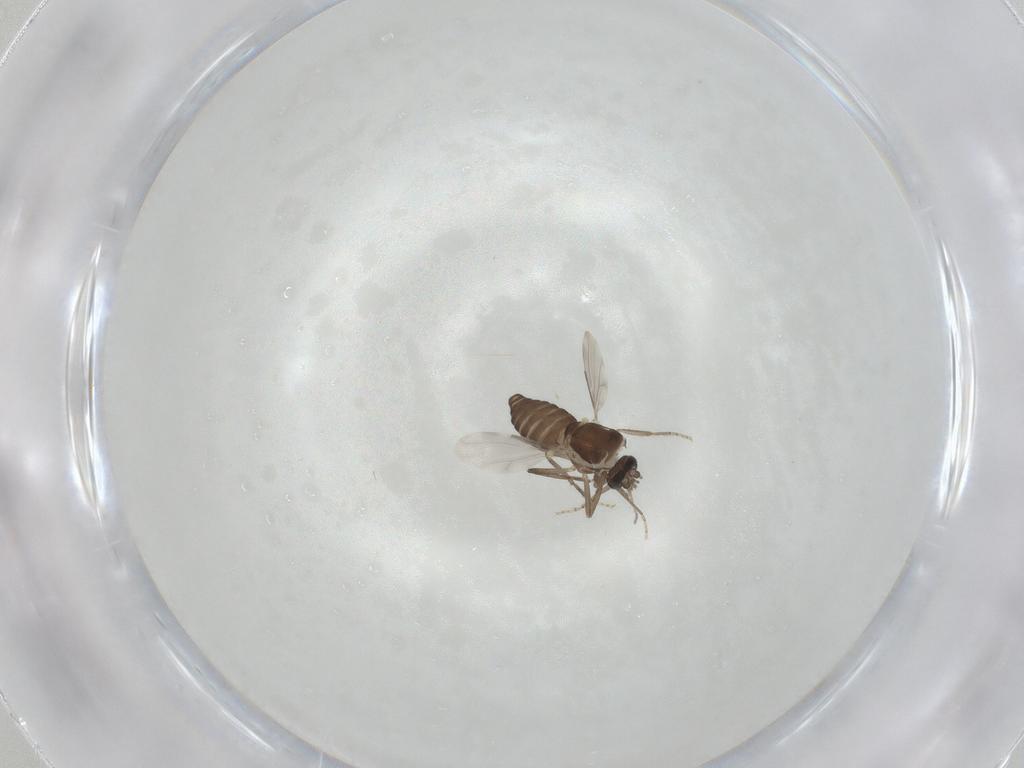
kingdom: Animalia
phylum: Arthropoda
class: Insecta
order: Diptera
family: Ceratopogonidae
